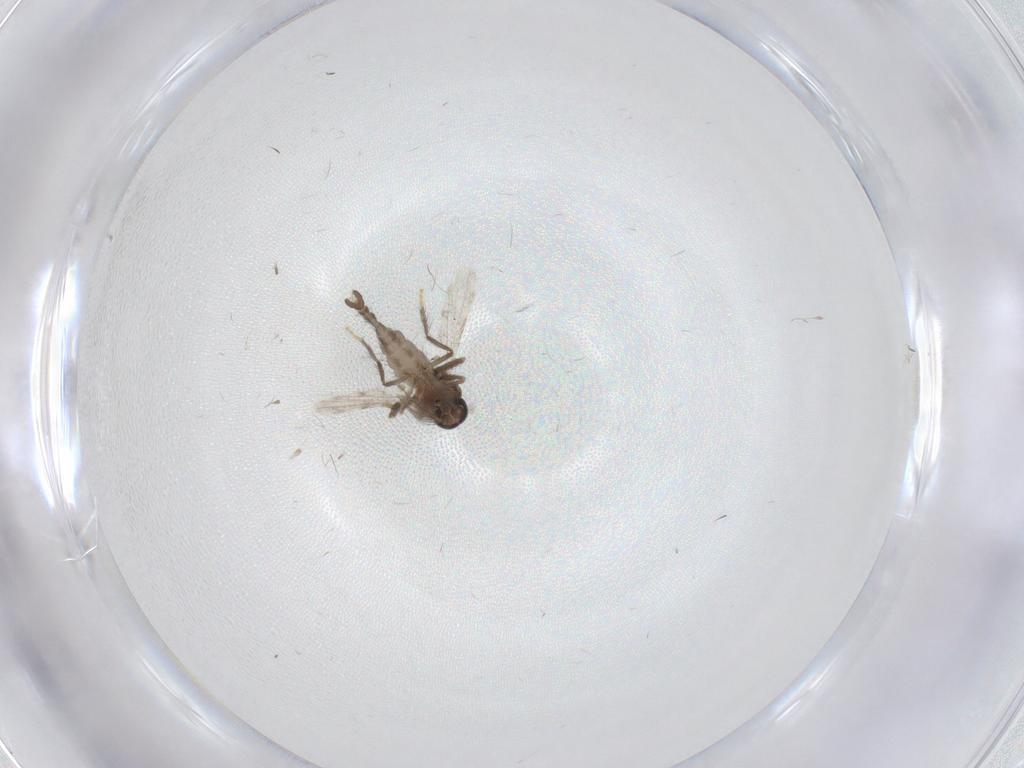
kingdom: Animalia
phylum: Arthropoda
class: Insecta
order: Diptera
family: Ceratopogonidae
